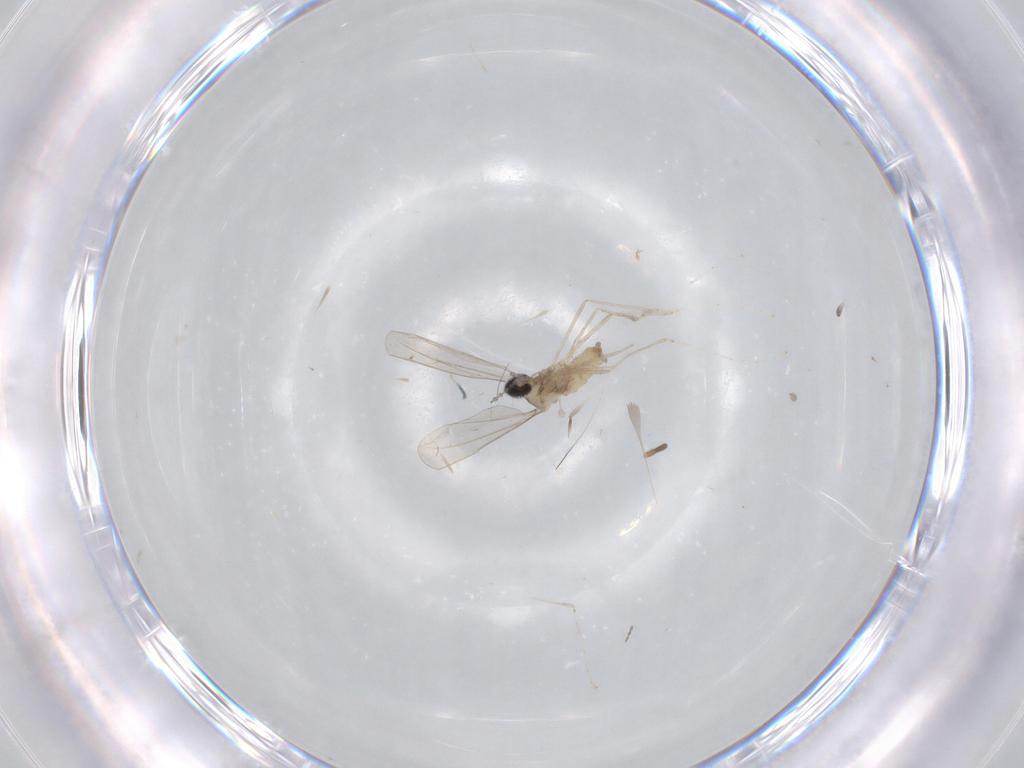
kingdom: Animalia
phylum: Arthropoda
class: Insecta
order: Diptera
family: Cecidomyiidae
